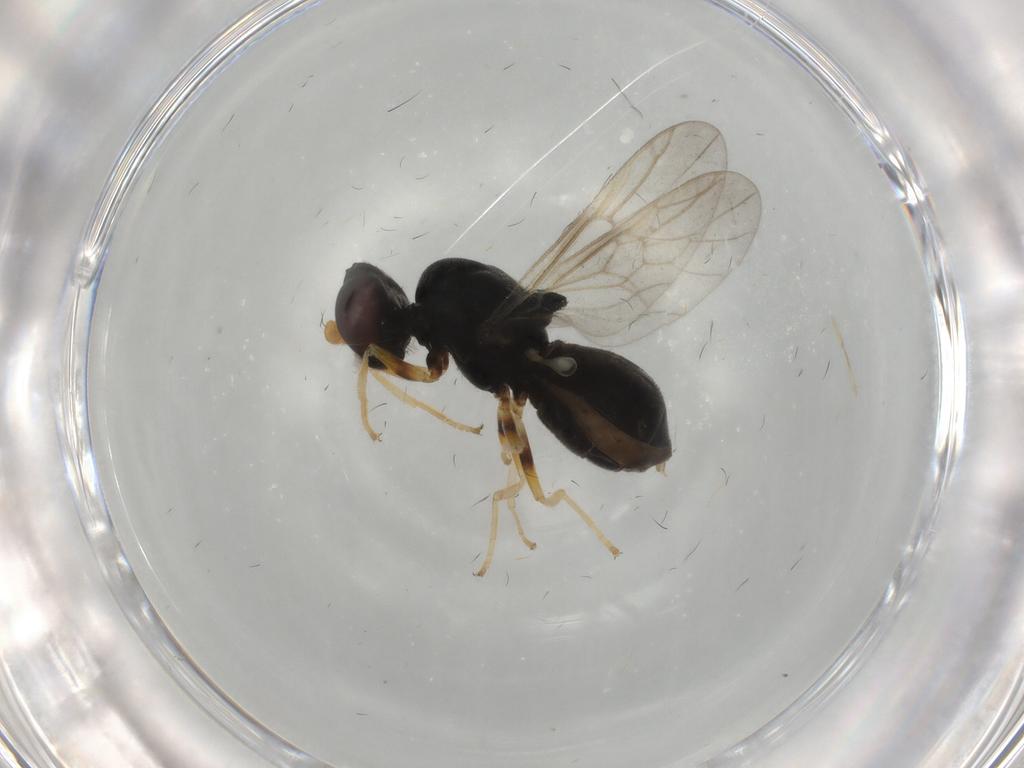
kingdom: Animalia
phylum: Arthropoda
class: Insecta
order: Diptera
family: Stratiomyidae
